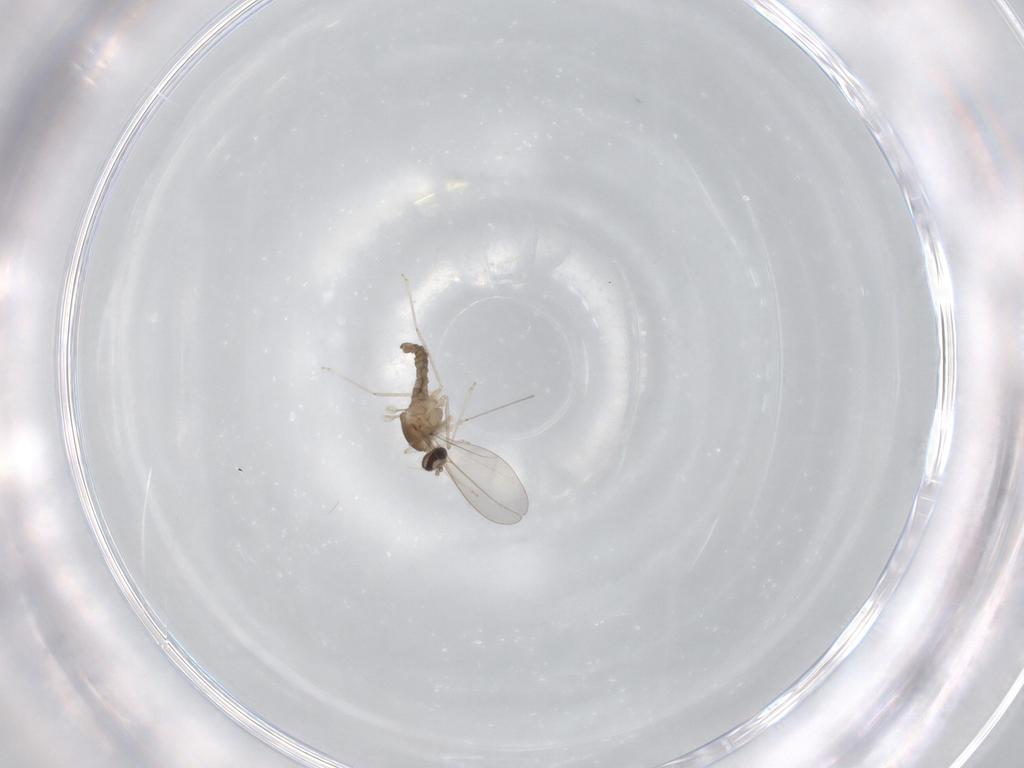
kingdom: Animalia
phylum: Arthropoda
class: Insecta
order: Diptera
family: Cecidomyiidae
